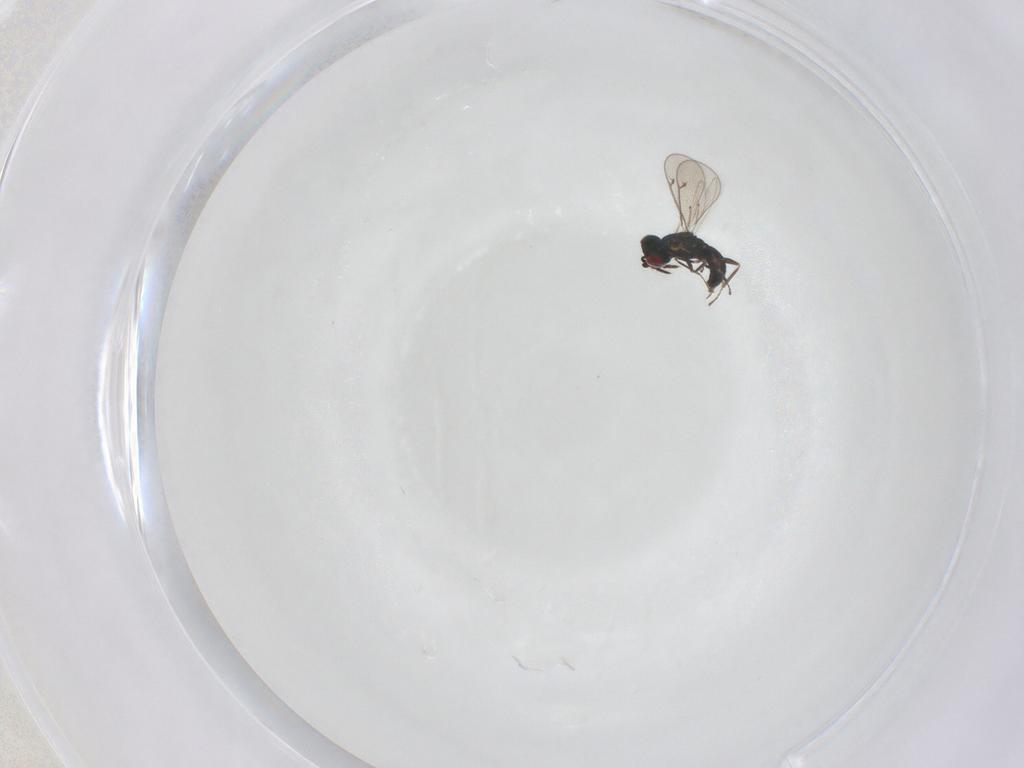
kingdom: Animalia
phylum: Arthropoda
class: Insecta
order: Hymenoptera
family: Eulophidae
